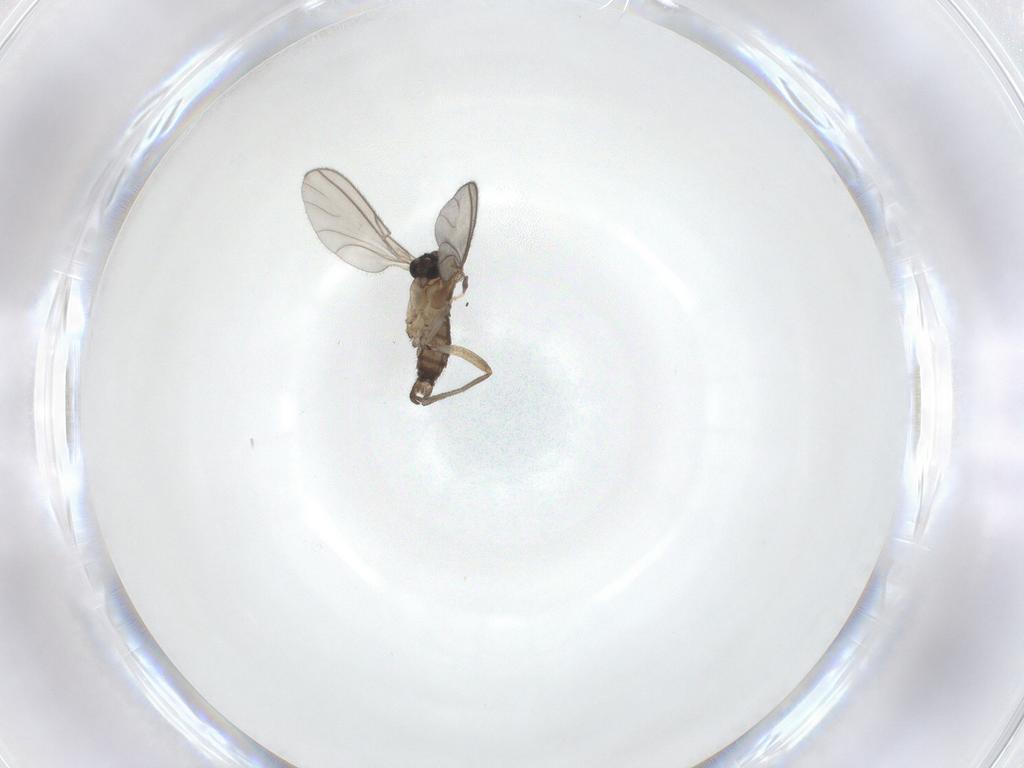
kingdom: Animalia
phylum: Arthropoda
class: Insecta
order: Diptera
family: Sciaridae
